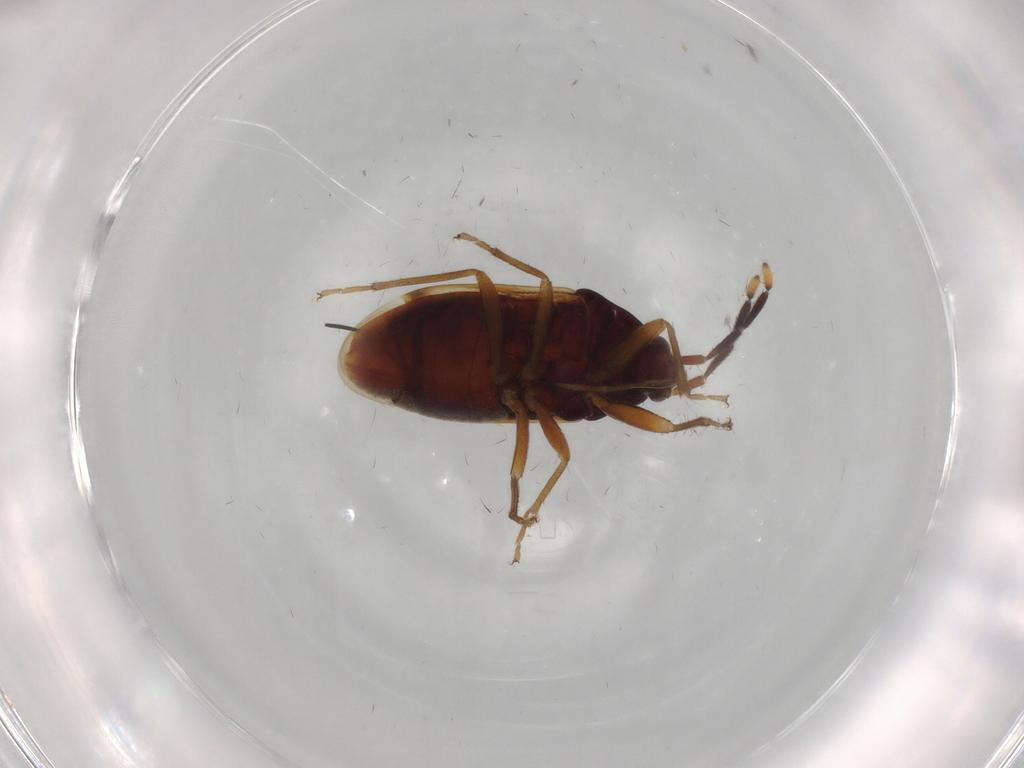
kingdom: Animalia
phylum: Arthropoda
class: Insecta
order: Hemiptera
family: Rhyparochromidae
